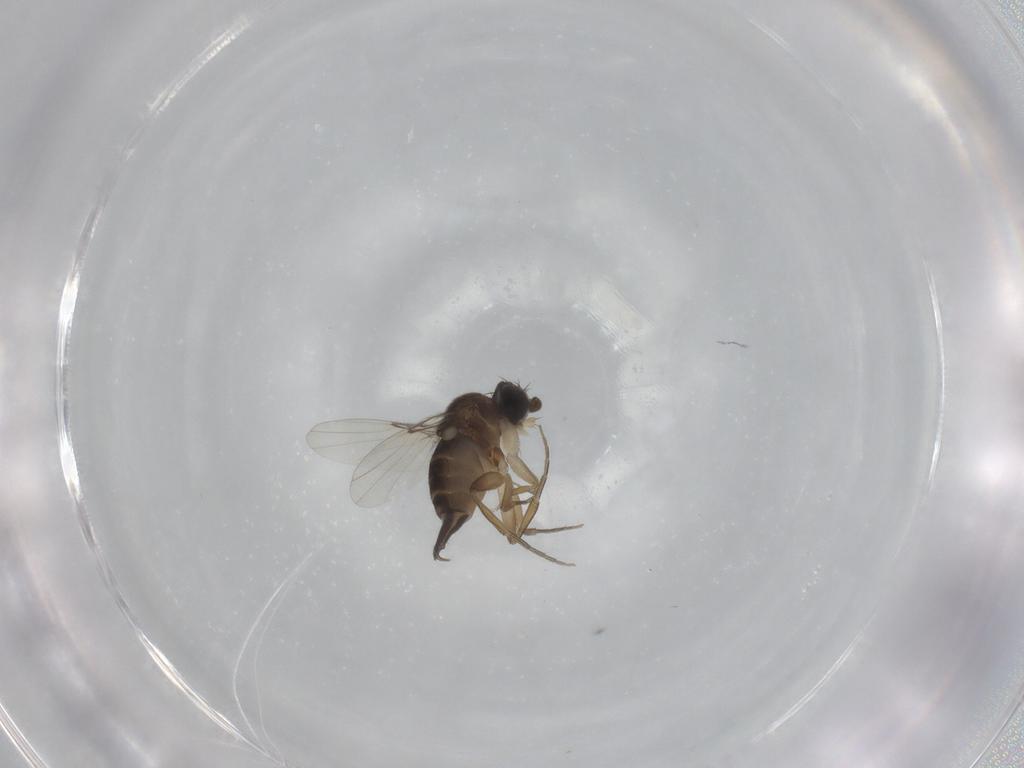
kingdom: Animalia
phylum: Arthropoda
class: Insecta
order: Diptera
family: Phoridae
